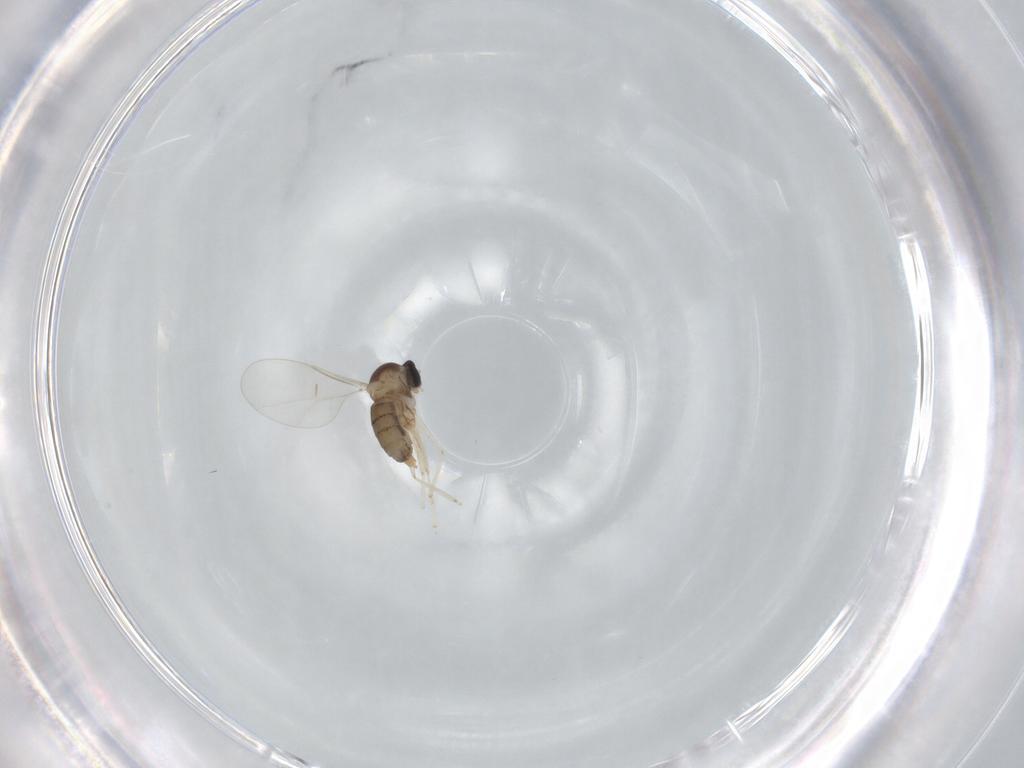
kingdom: Animalia
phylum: Arthropoda
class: Insecta
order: Diptera
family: Cecidomyiidae
